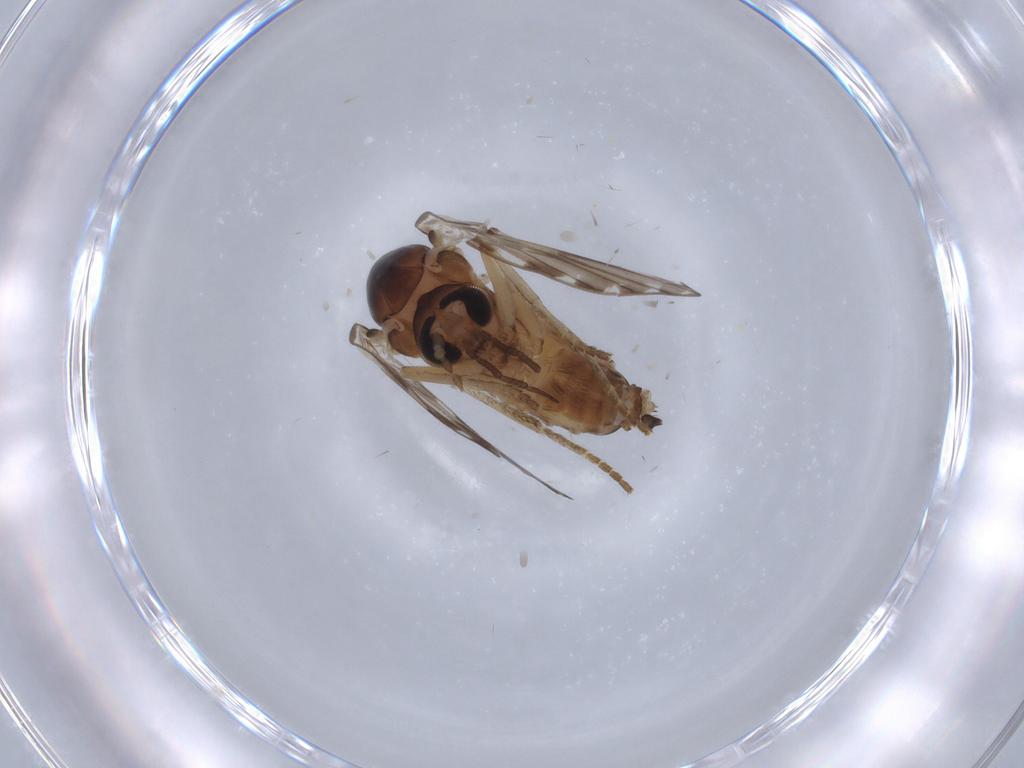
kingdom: Animalia
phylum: Arthropoda
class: Insecta
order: Diptera
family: Psychodidae
